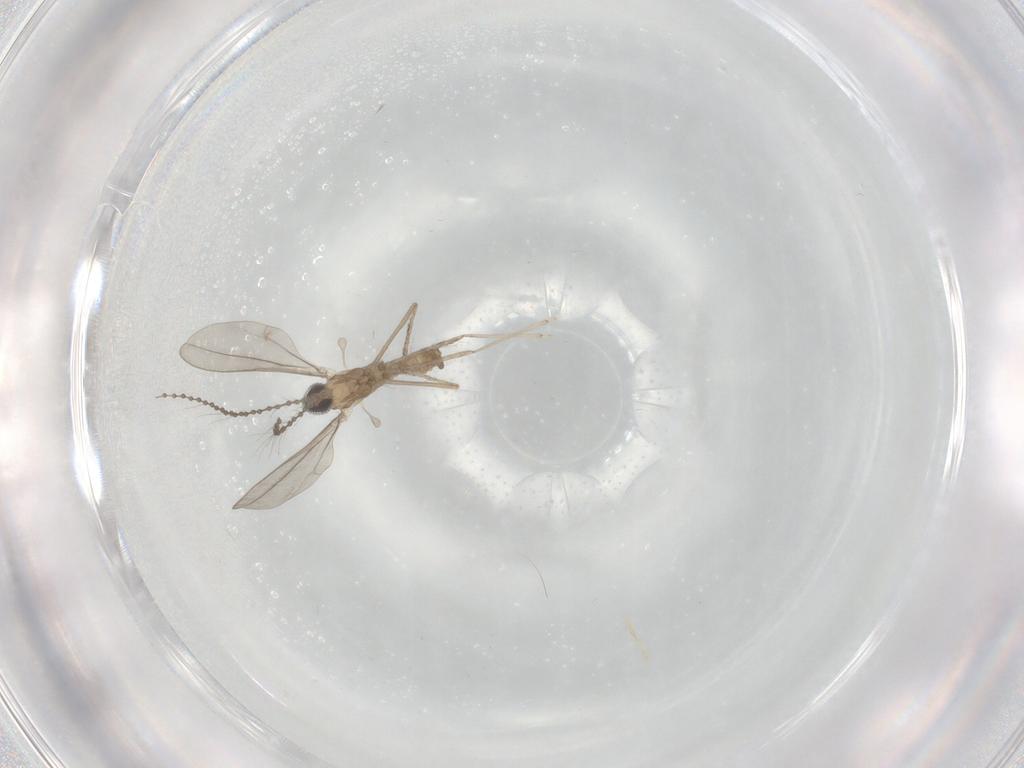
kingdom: Animalia
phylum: Arthropoda
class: Insecta
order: Diptera
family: Cecidomyiidae
